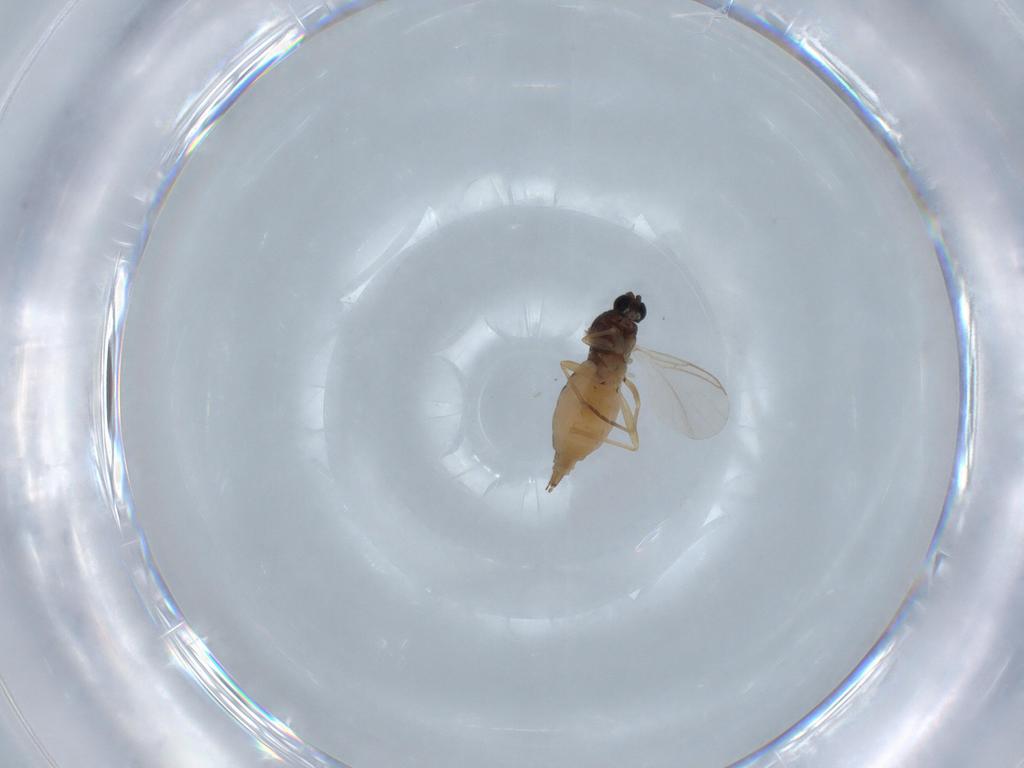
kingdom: Animalia
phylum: Arthropoda
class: Insecta
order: Diptera
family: Sciaridae
